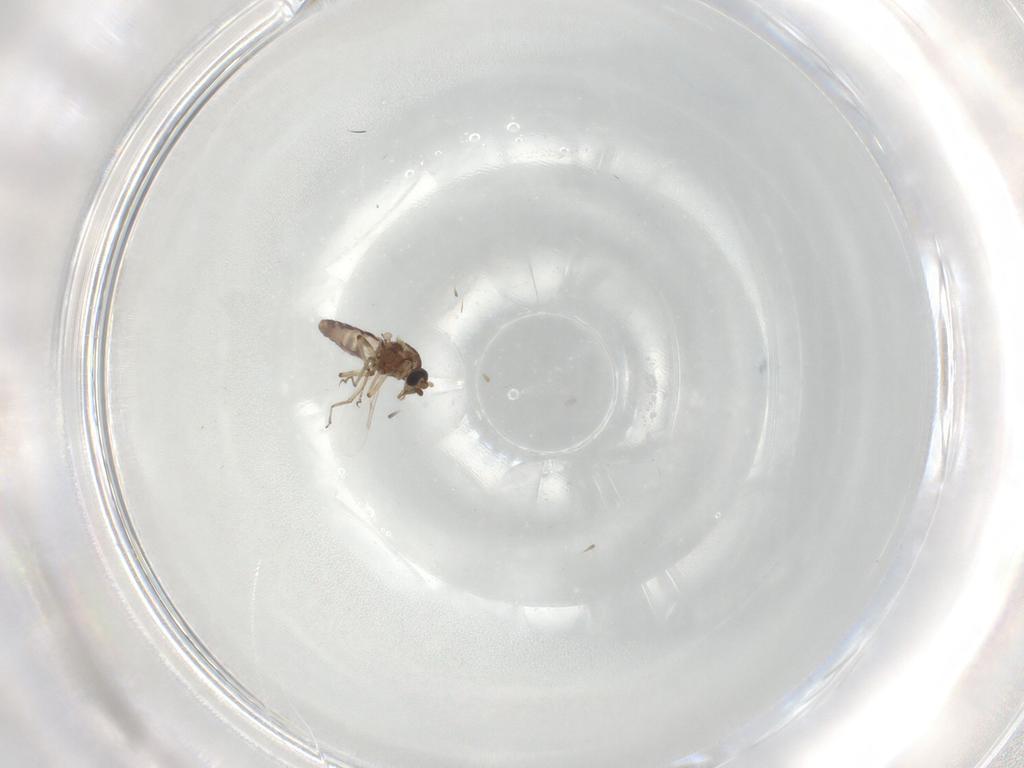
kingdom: Animalia
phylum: Arthropoda
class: Insecta
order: Diptera
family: Ceratopogonidae
